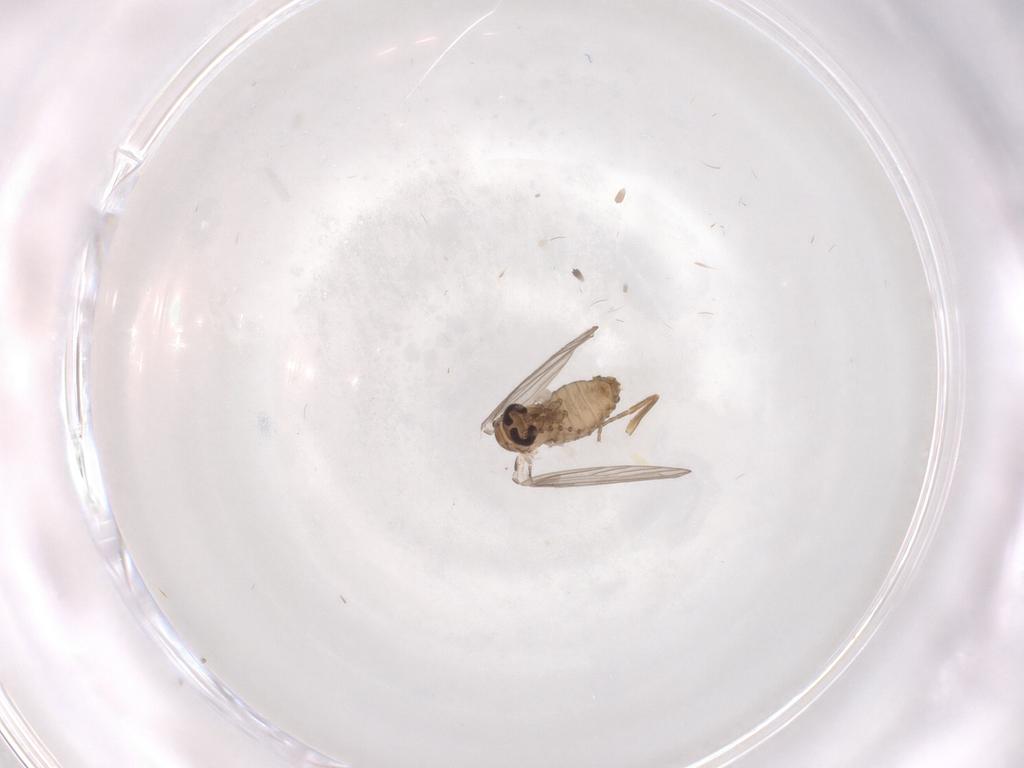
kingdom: Animalia
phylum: Arthropoda
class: Insecta
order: Diptera
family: Psychodidae
